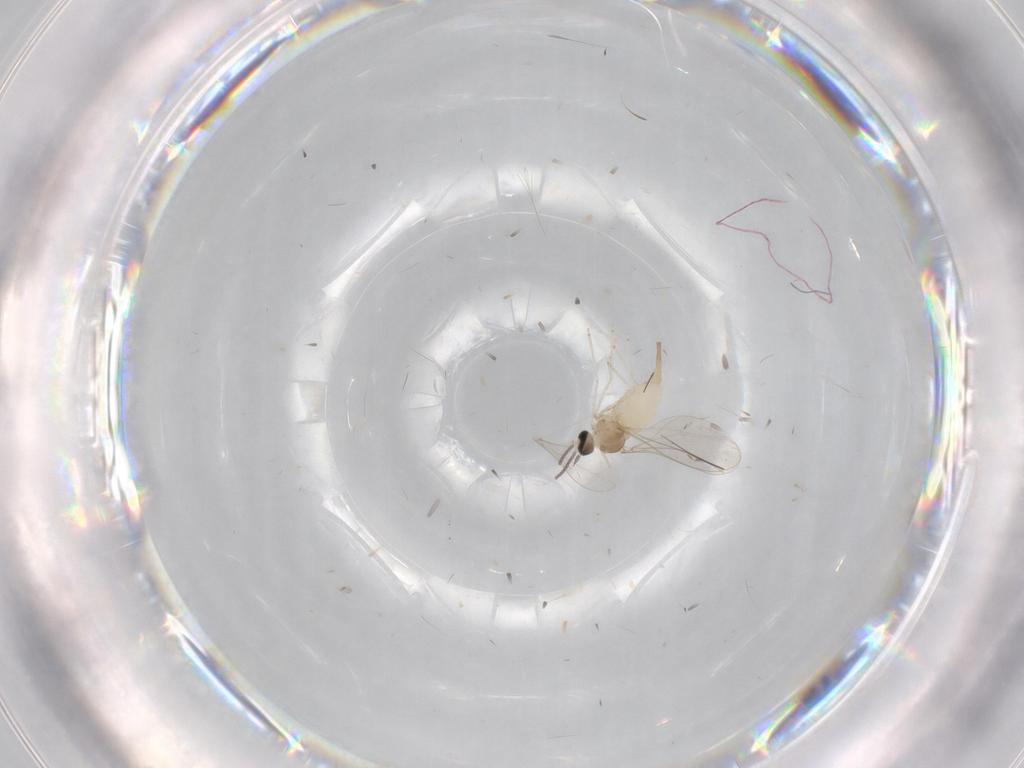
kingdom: Animalia
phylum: Arthropoda
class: Insecta
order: Diptera
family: Cecidomyiidae
